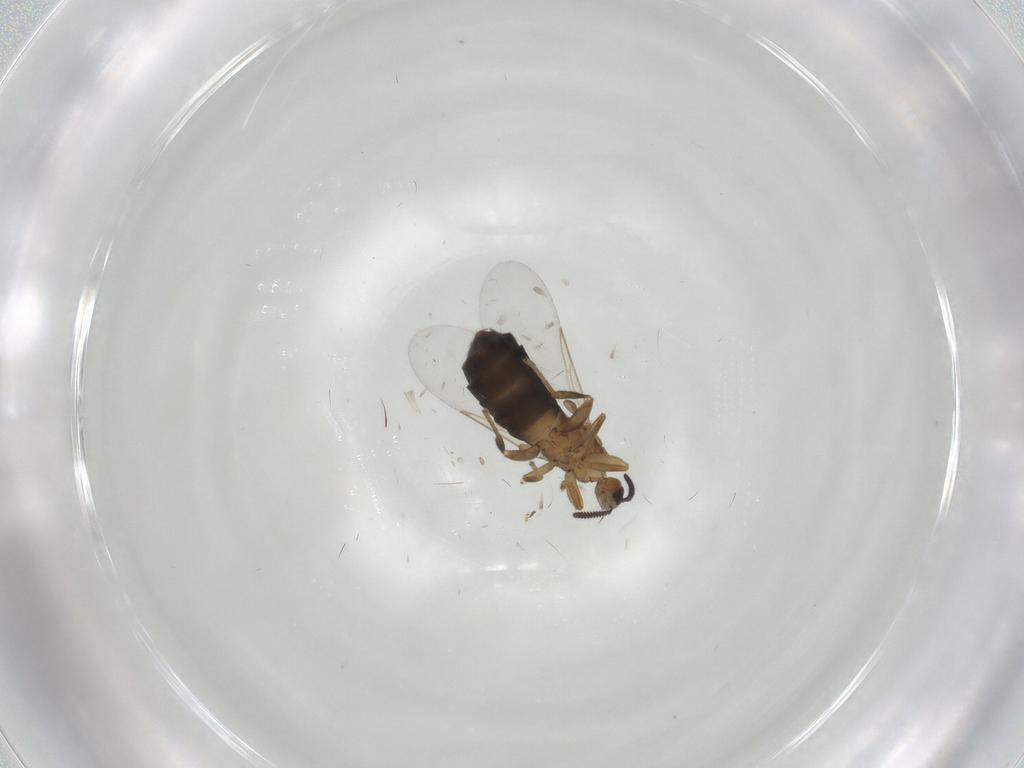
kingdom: Animalia
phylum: Arthropoda
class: Insecta
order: Diptera
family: Scatopsidae
